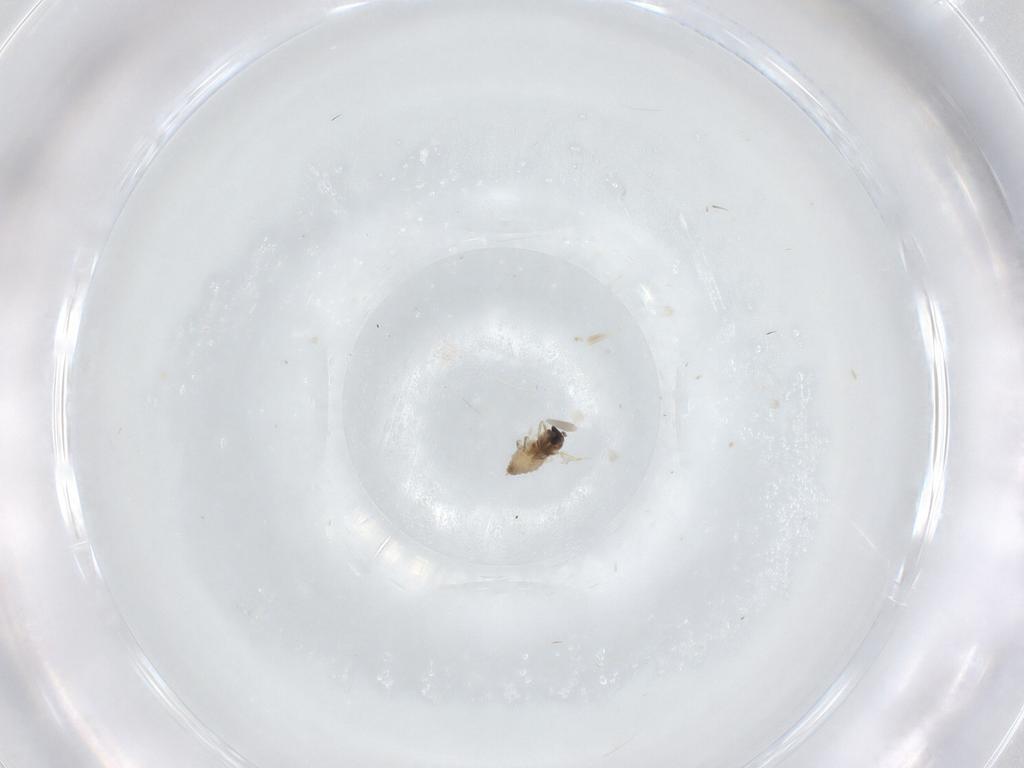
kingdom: Animalia
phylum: Arthropoda
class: Insecta
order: Diptera
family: Cecidomyiidae
